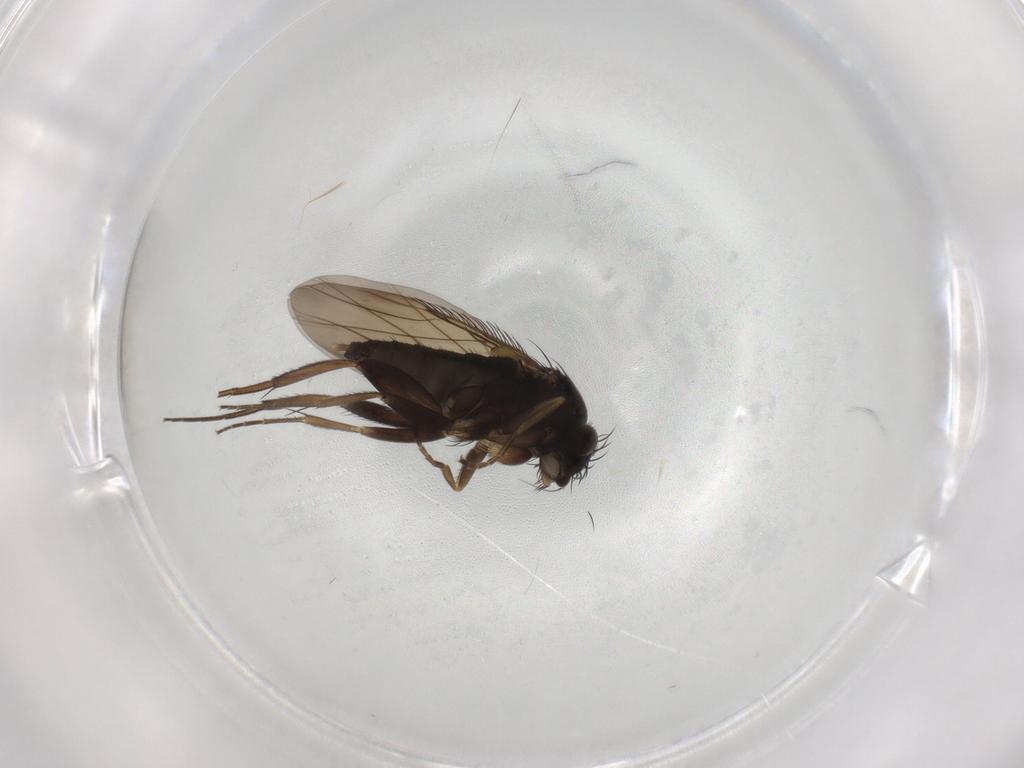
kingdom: Animalia
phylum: Arthropoda
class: Insecta
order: Diptera
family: Phoridae
